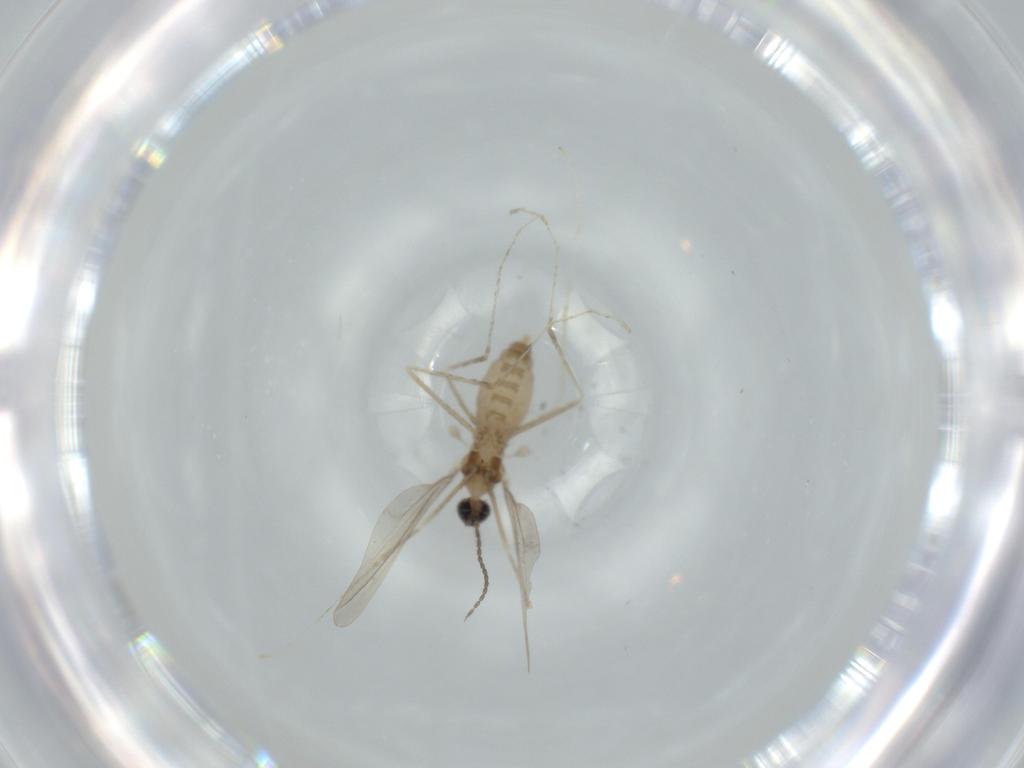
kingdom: Animalia
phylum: Arthropoda
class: Insecta
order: Diptera
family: Cecidomyiidae
